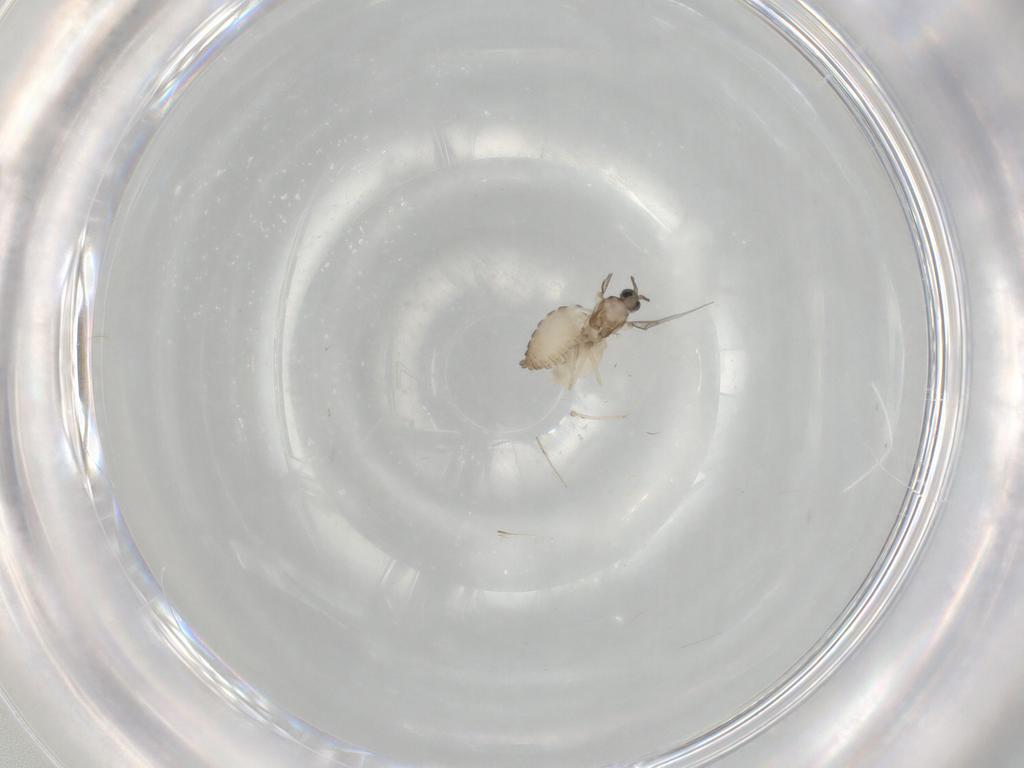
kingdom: Animalia
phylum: Arthropoda
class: Insecta
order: Diptera
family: Cecidomyiidae
